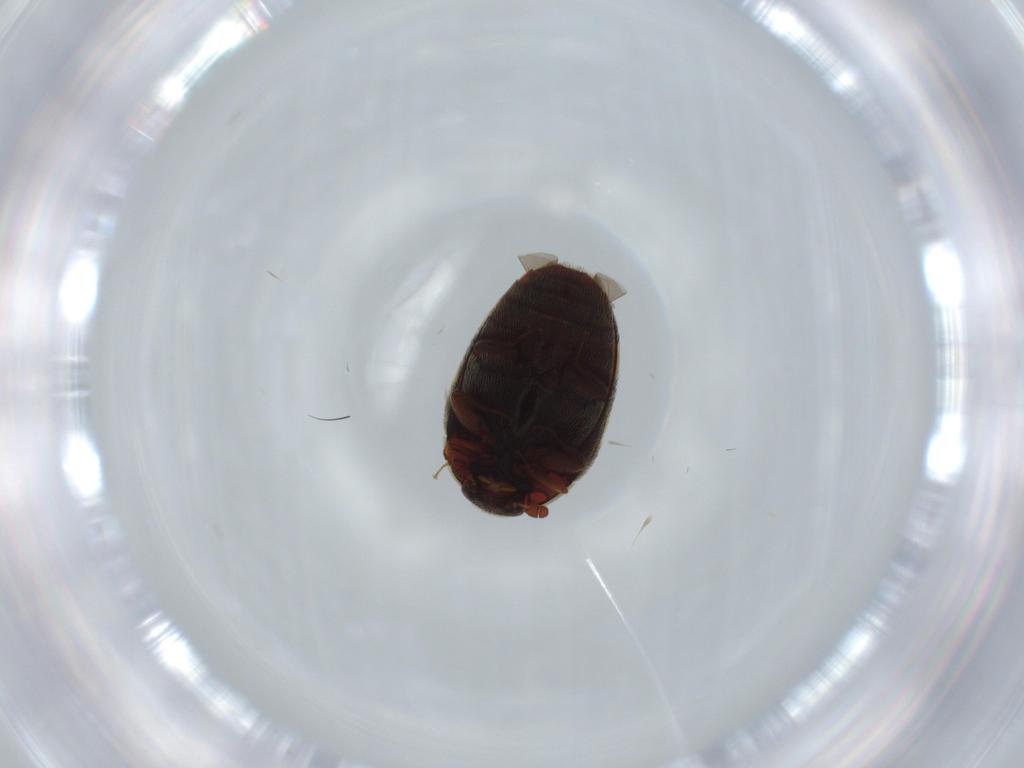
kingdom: Animalia
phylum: Arthropoda
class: Insecta
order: Coleoptera
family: Dermestidae
